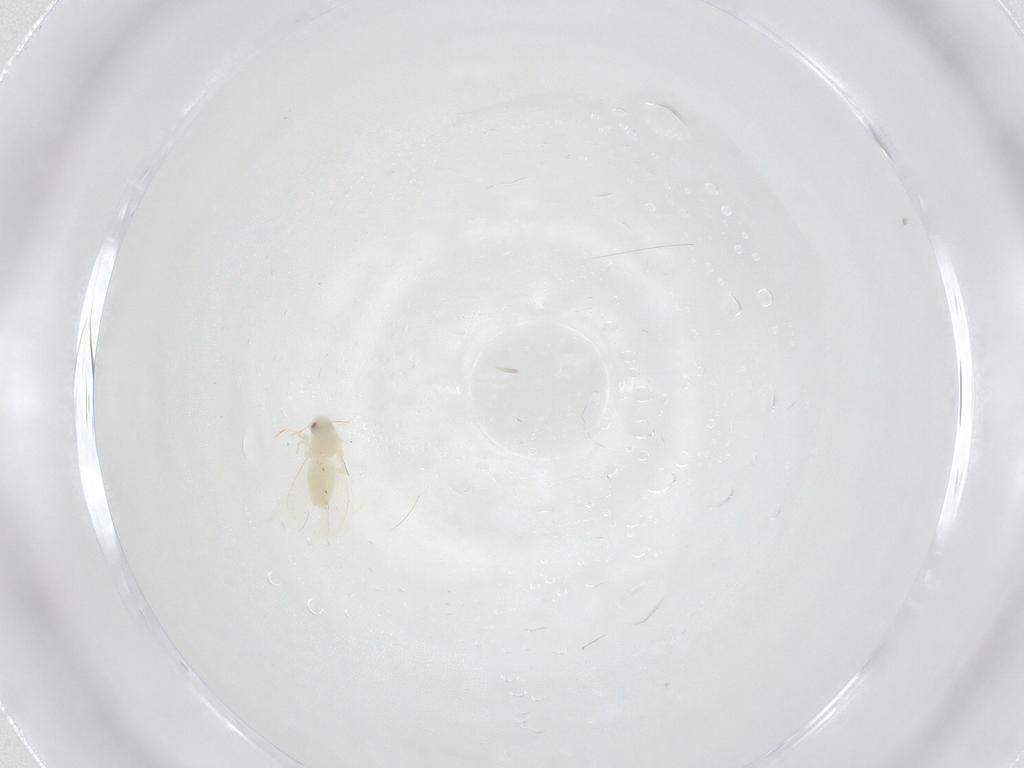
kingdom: Animalia
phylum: Arthropoda
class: Insecta
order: Hemiptera
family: Aleyrodidae
